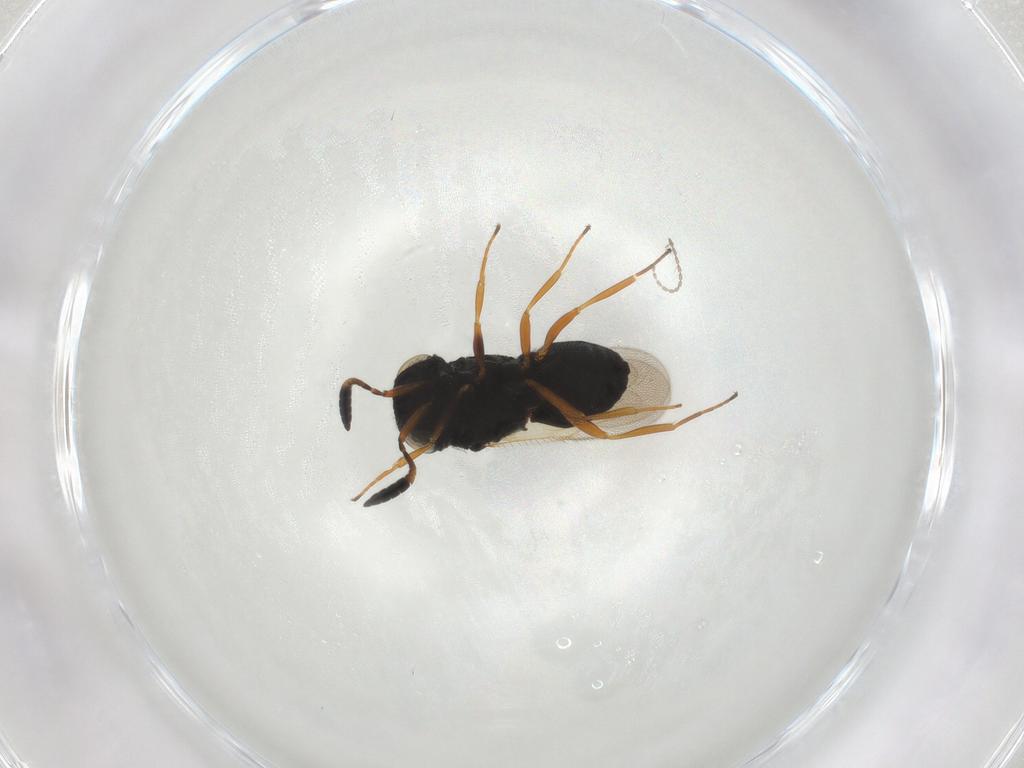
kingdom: Animalia
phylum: Arthropoda
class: Insecta
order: Hymenoptera
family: Scelionidae
